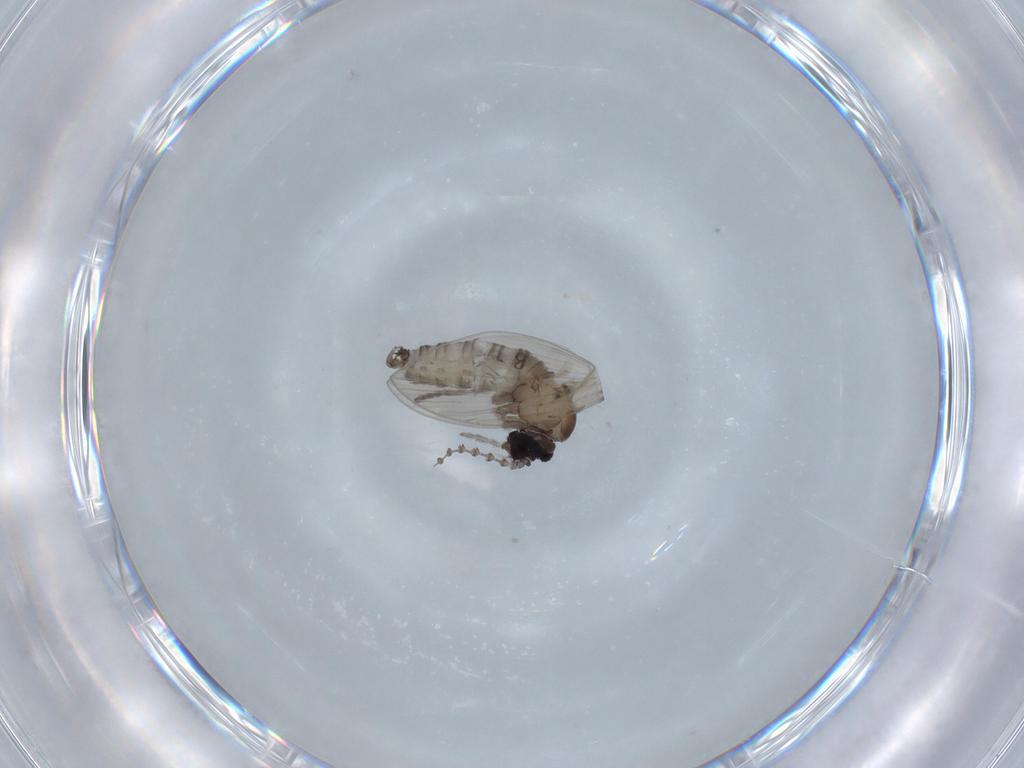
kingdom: Animalia
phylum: Arthropoda
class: Insecta
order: Diptera
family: Psychodidae
